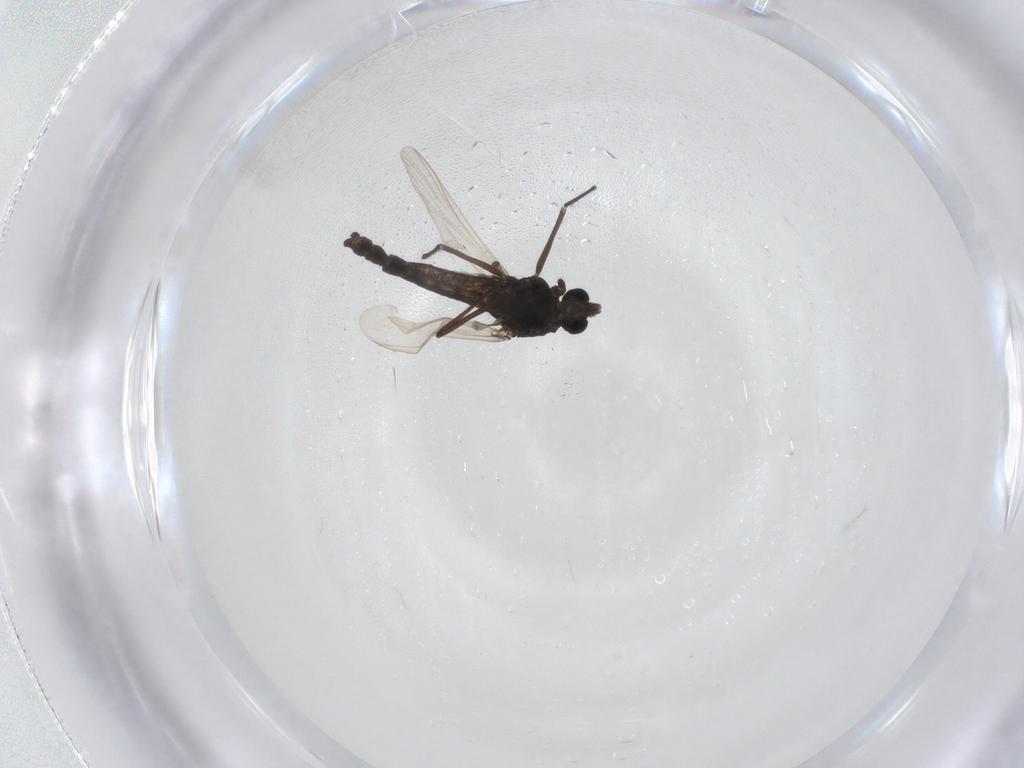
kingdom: Animalia
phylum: Arthropoda
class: Insecta
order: Diptera
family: Chironomidae
